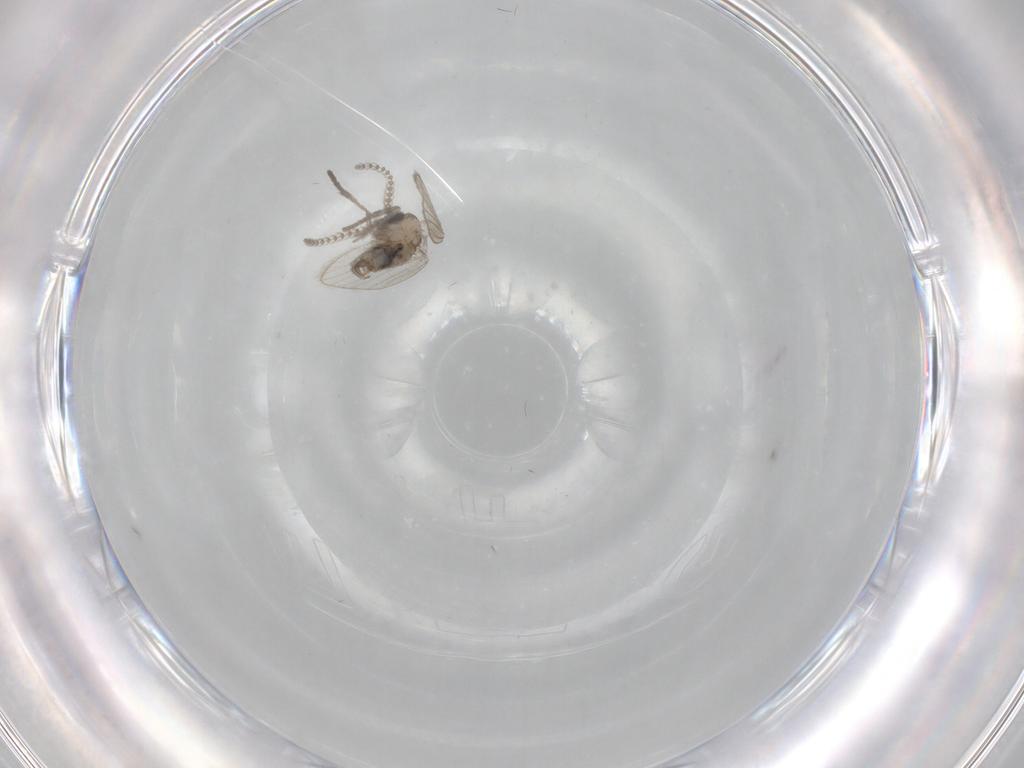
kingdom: Animalia
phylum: Arthropoda
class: Insecta
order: Diptera
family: Psychodidae
